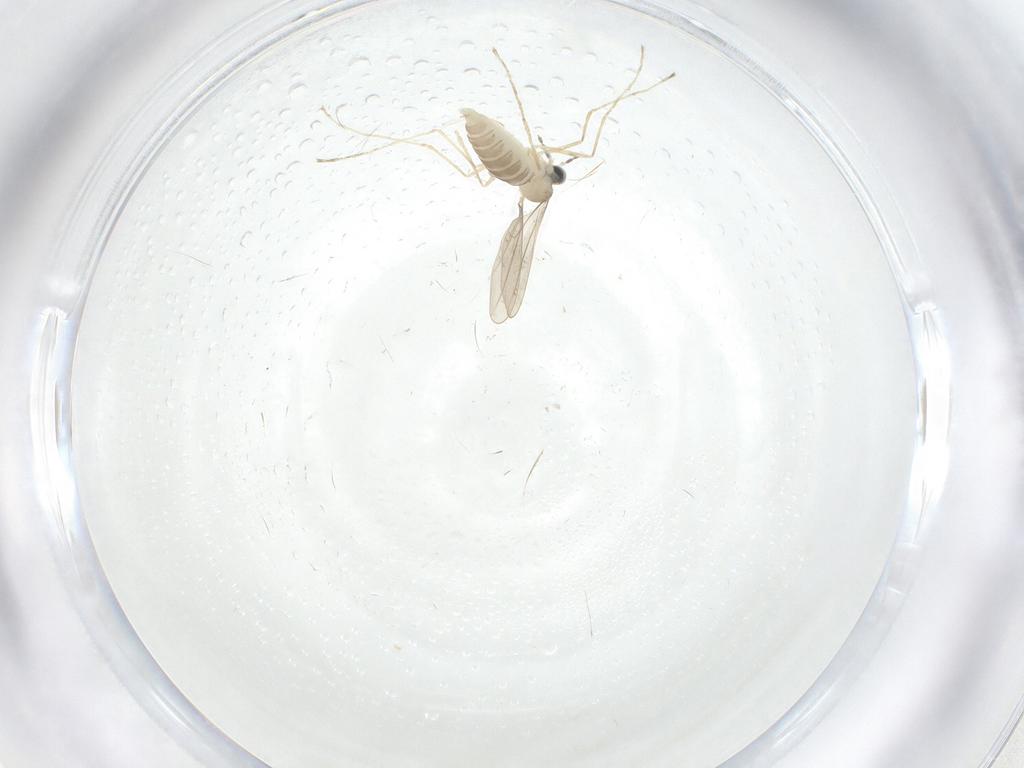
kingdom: Animalia
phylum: Arthropoda
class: Insecta
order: Diptera
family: Cecidomyiidae
